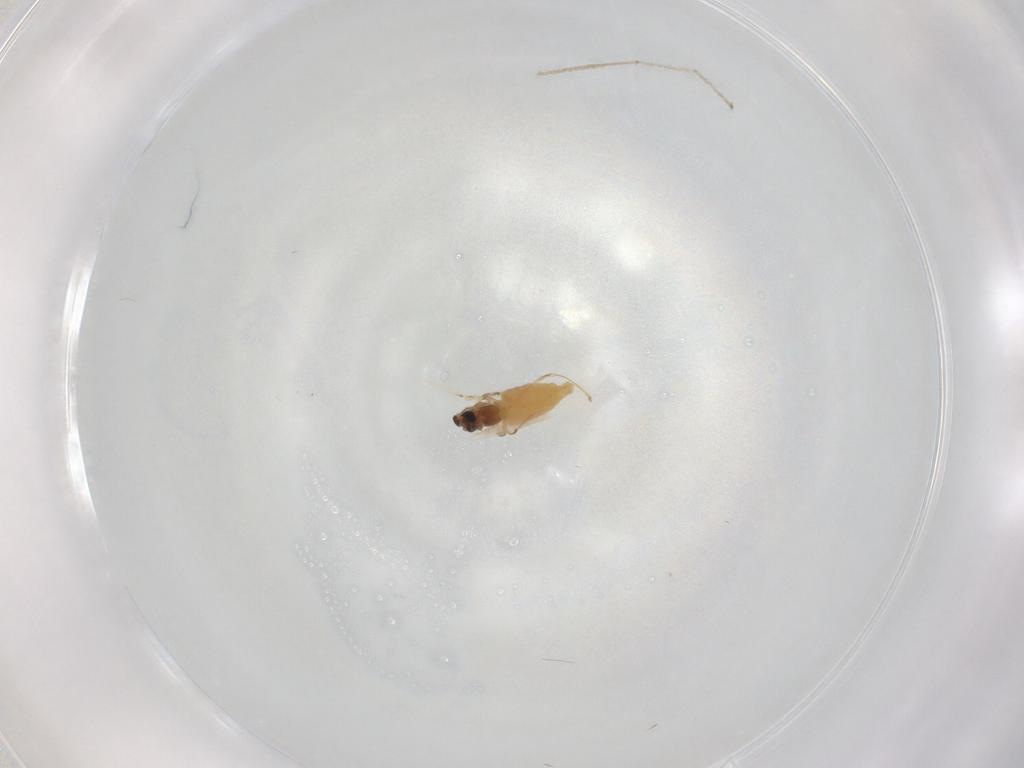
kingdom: Animalia
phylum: Arthropoda
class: Insecta
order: Diptera
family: Chironomidae
